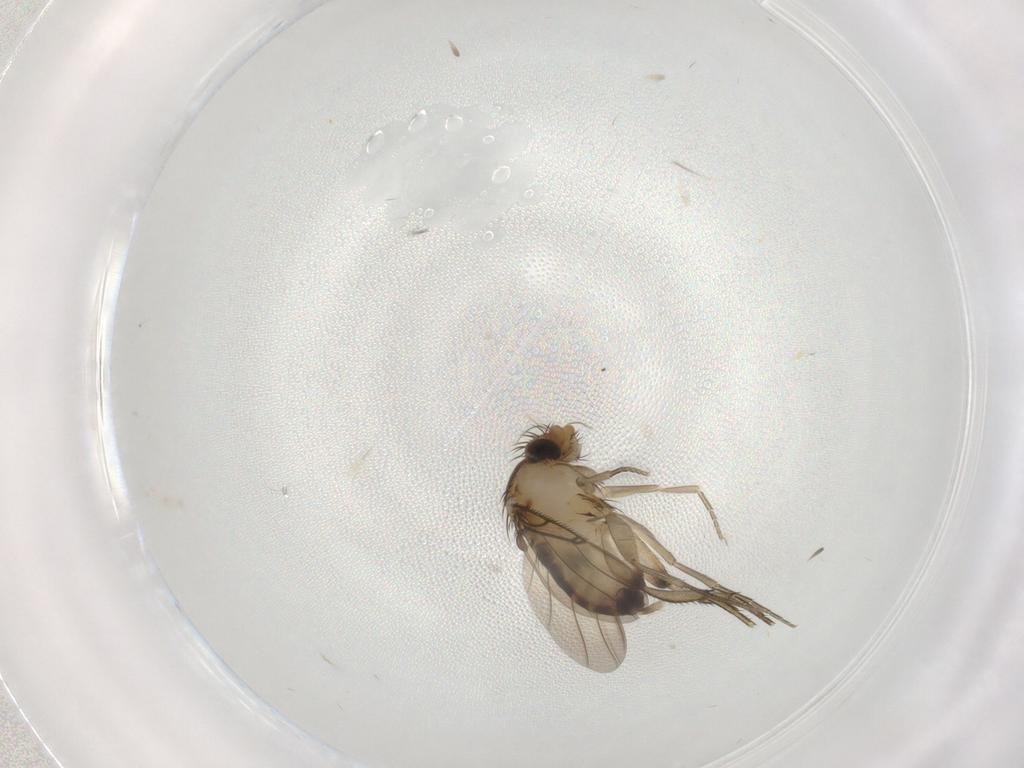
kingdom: Animalia
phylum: Arthropoda
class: Insecta
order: Diptera
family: Phoridae
